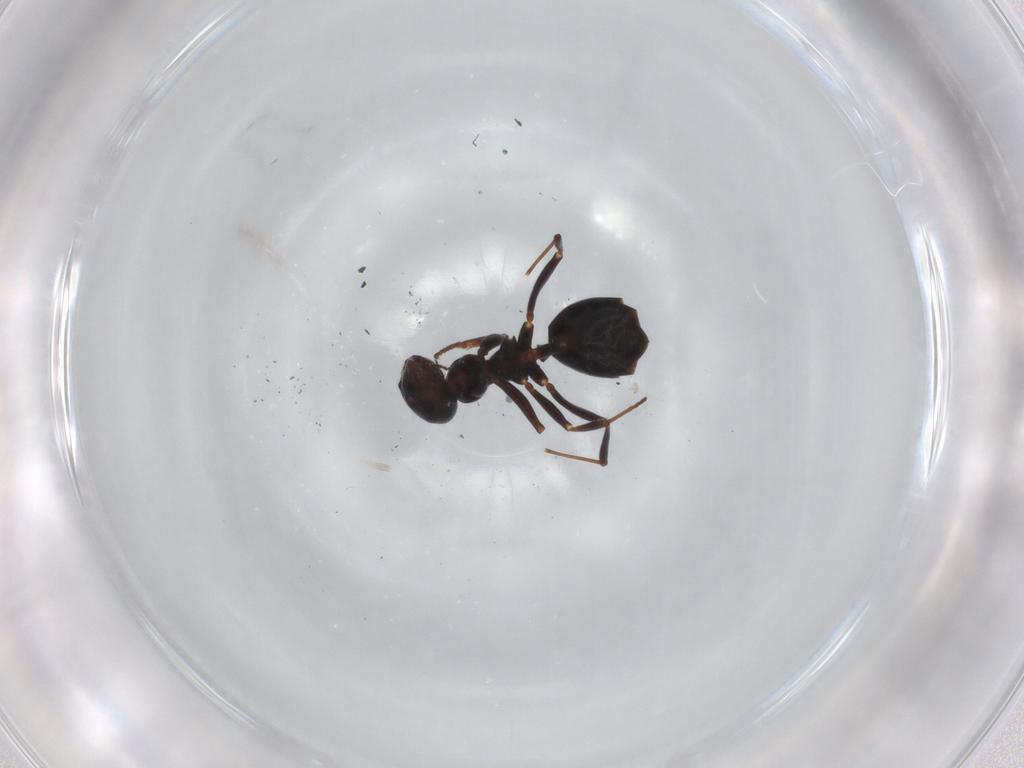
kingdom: Animalia
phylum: Arthropoda
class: Insecta
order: Hymenoptera
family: Formicidae
